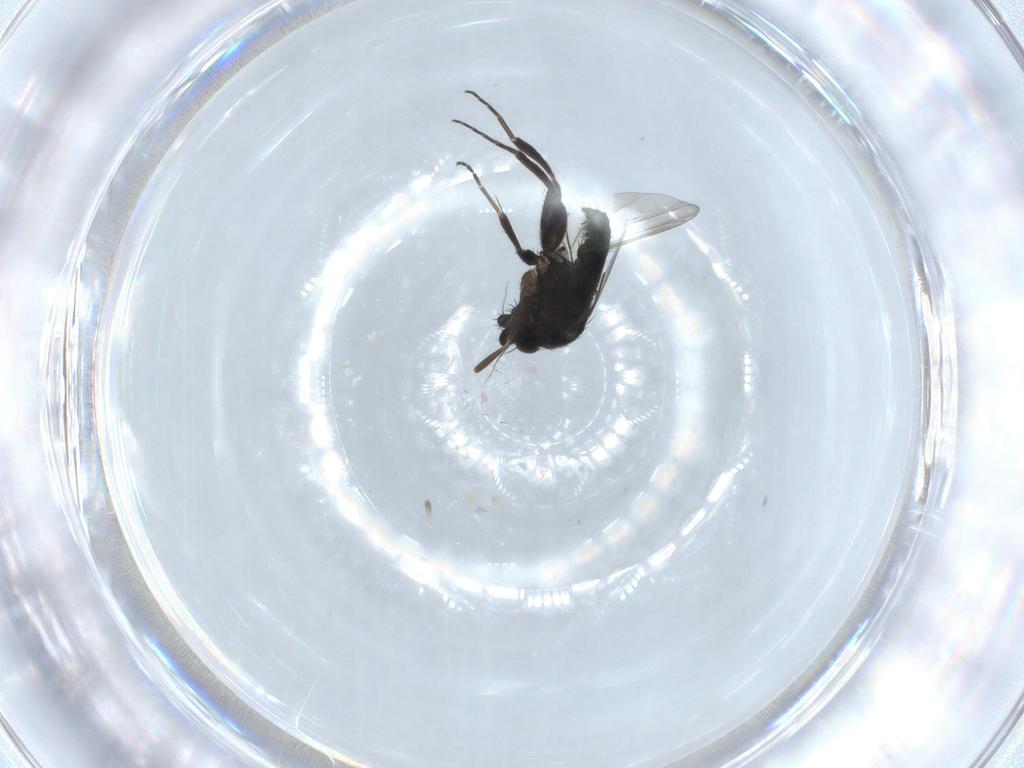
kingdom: Animalia
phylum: Arthropoda
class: Insecta
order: Diptera
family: Phoridae
